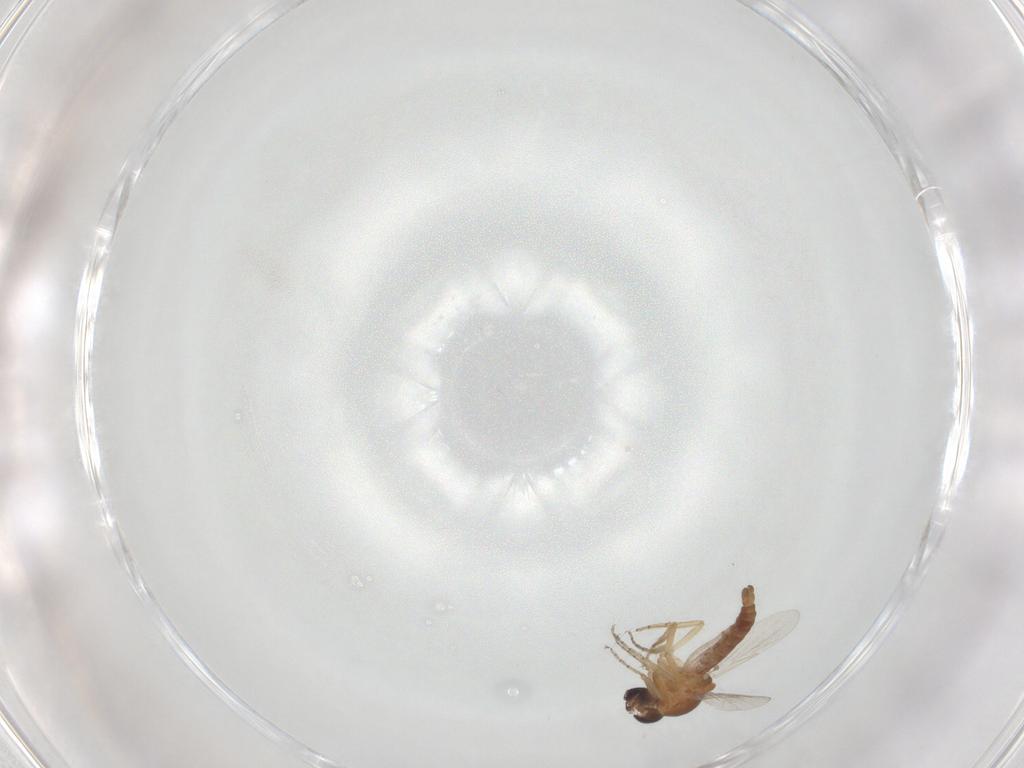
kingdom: Animalia
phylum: Arthropoda
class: Insecta
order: Diptera
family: Ceratopogonidae
